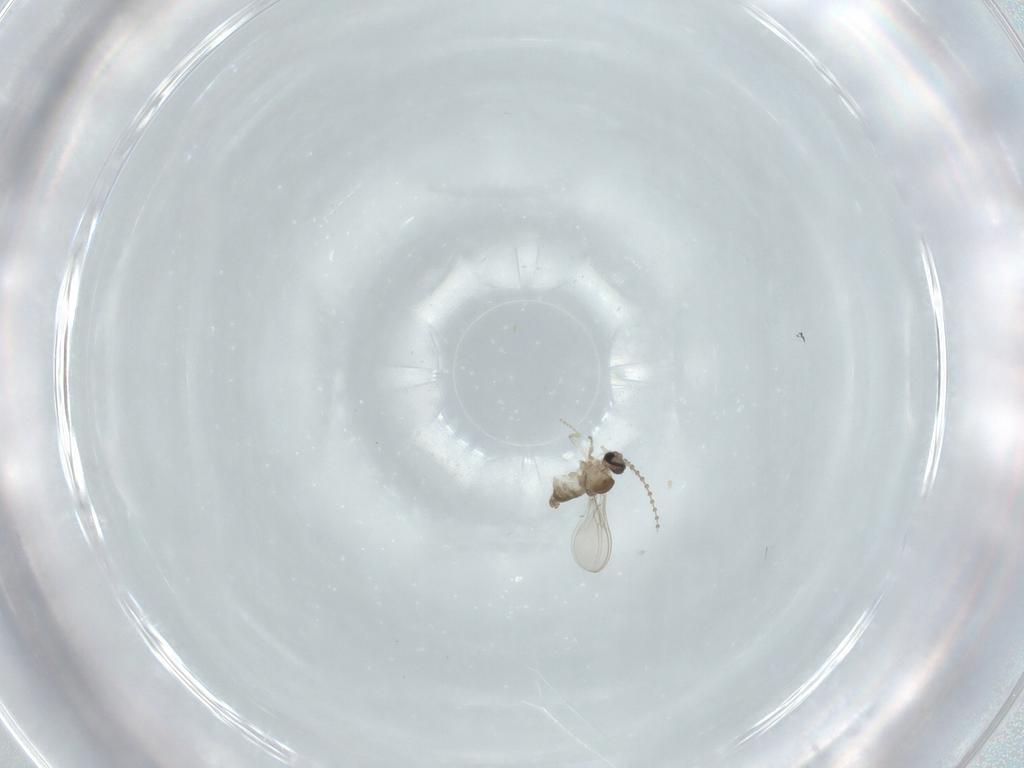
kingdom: Animalia
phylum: Arthropoda
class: Insecta
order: Diptera
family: Cecidomyiidae
